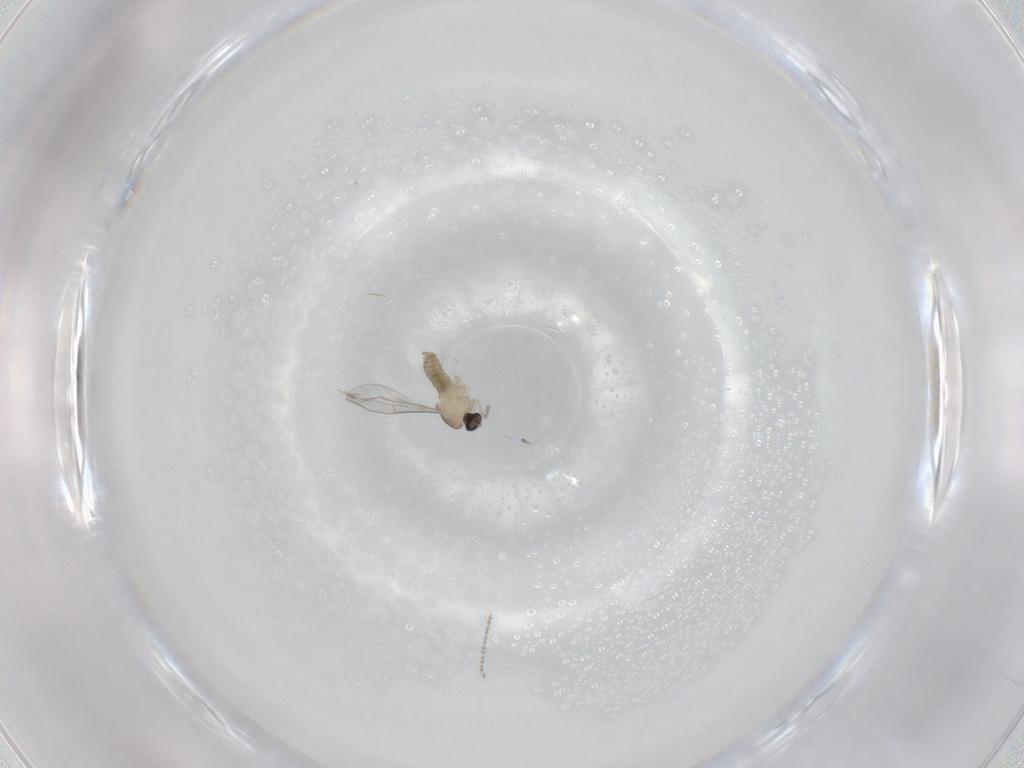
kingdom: Animalia
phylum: Arthropoda
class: Insecta
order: Diptera
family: Cecidomyiidae
